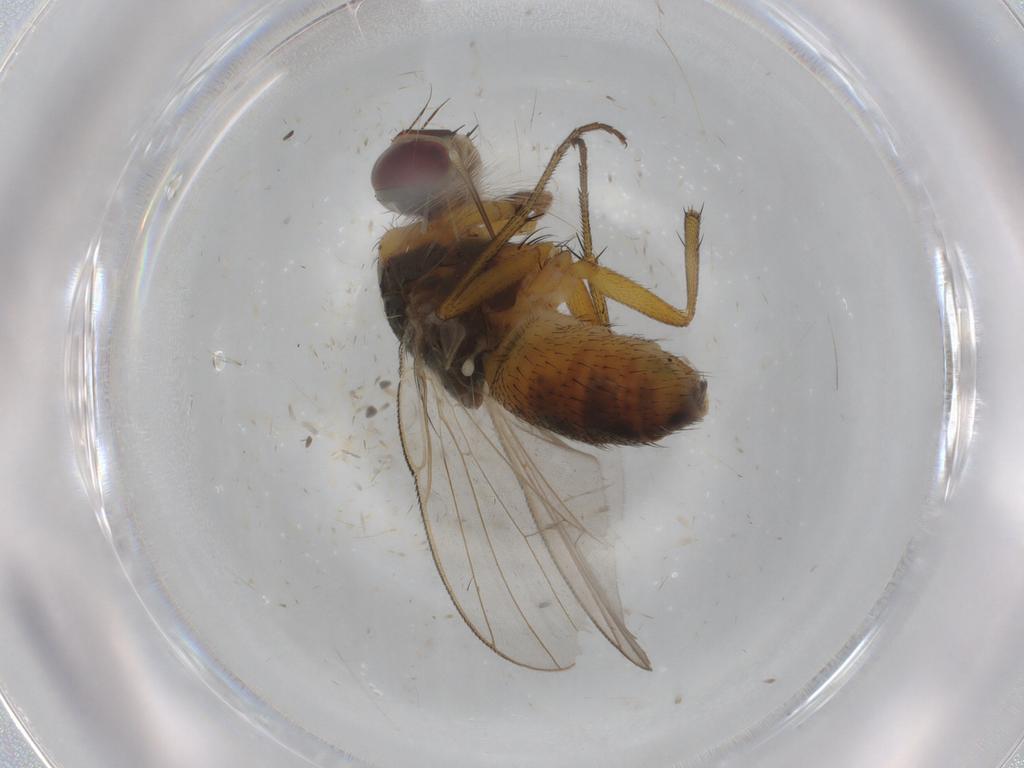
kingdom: Animalia
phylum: Arthropoda
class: Insecta
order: Diptera
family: Muscidae
